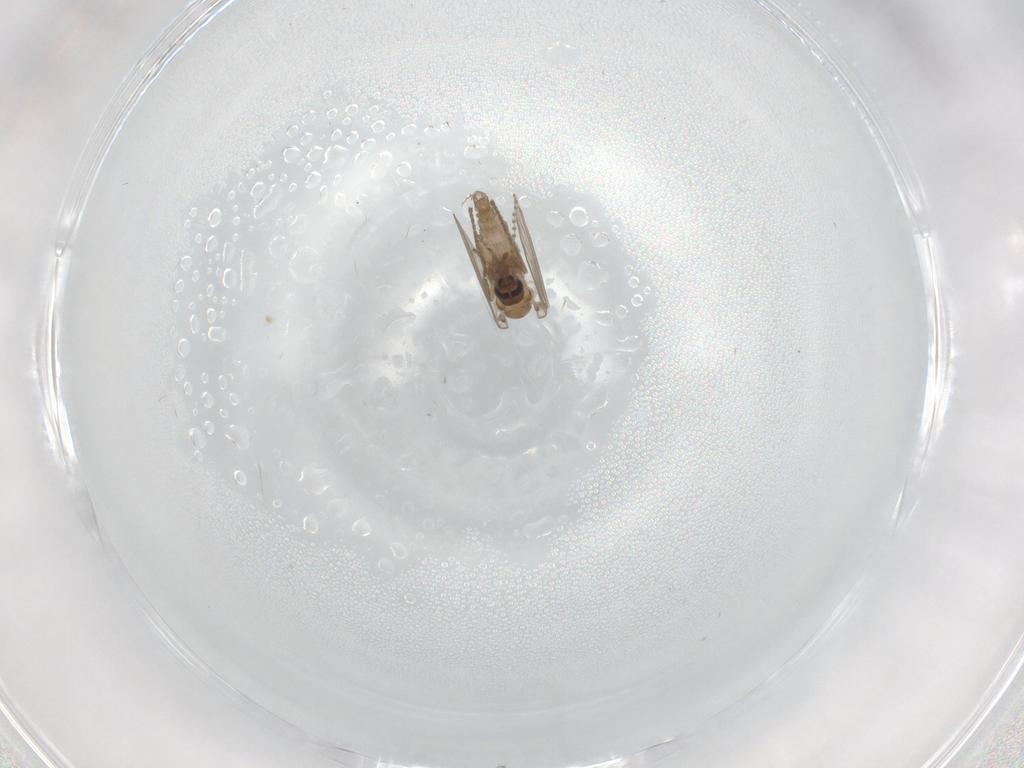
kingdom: Animalia
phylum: Arthropoda
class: Insecta
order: Diptera
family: Psychodidae
